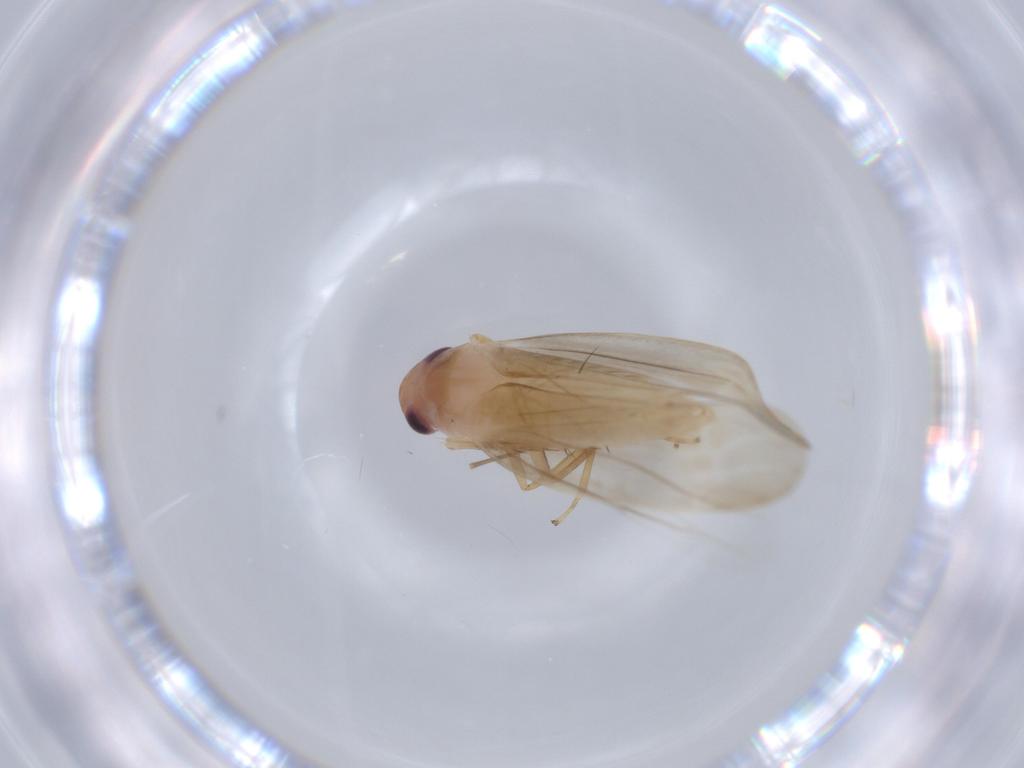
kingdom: Animalia
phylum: Arthropoda
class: Insecta
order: Hemiptera
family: Cicadellidae
